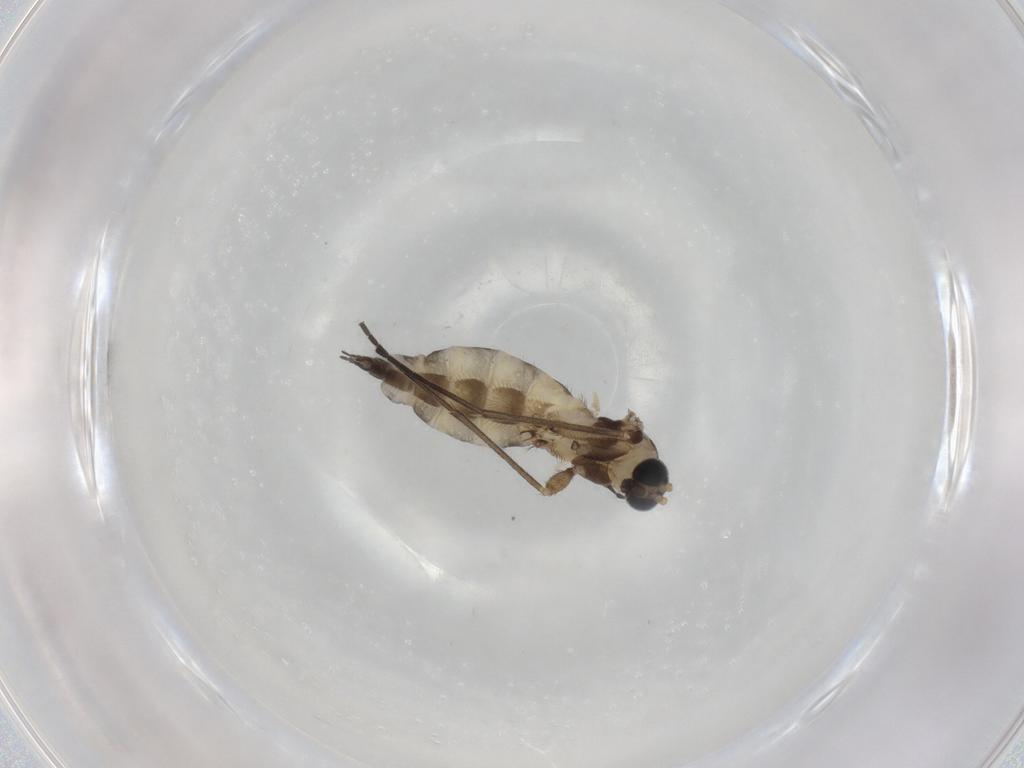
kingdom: Animalia
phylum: Arthropoda
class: Insecta
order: Diptera
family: Sciaridae
